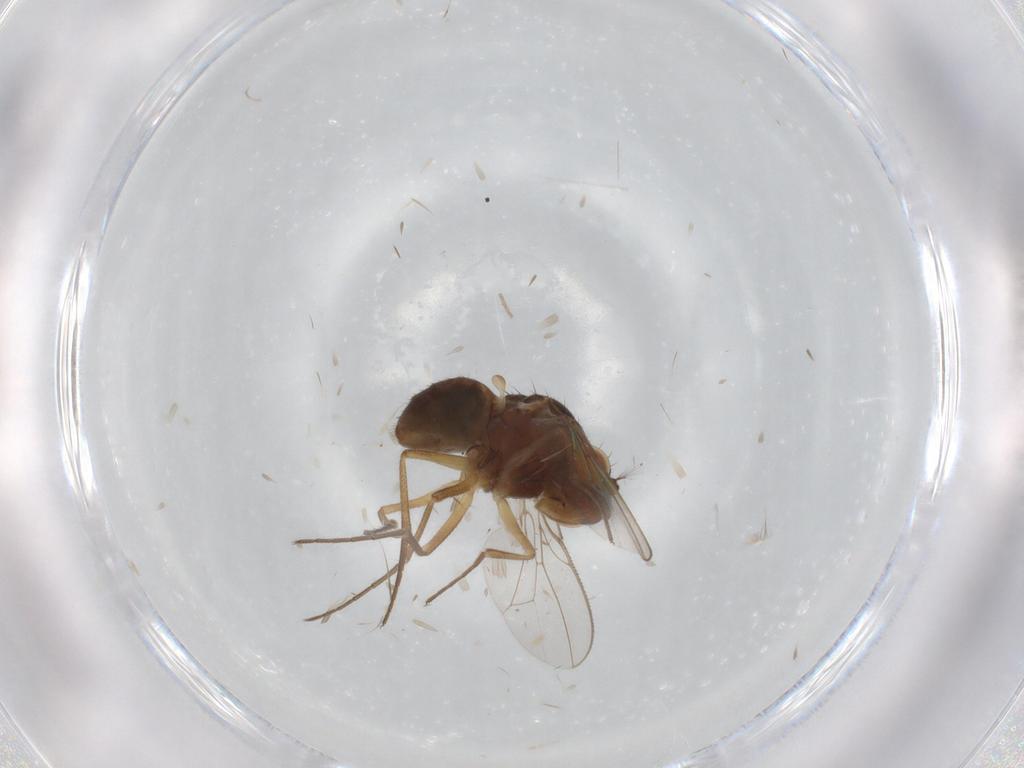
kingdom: Animalia
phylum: Arthropoda
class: Insecta
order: Diptera
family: Ephydridae
